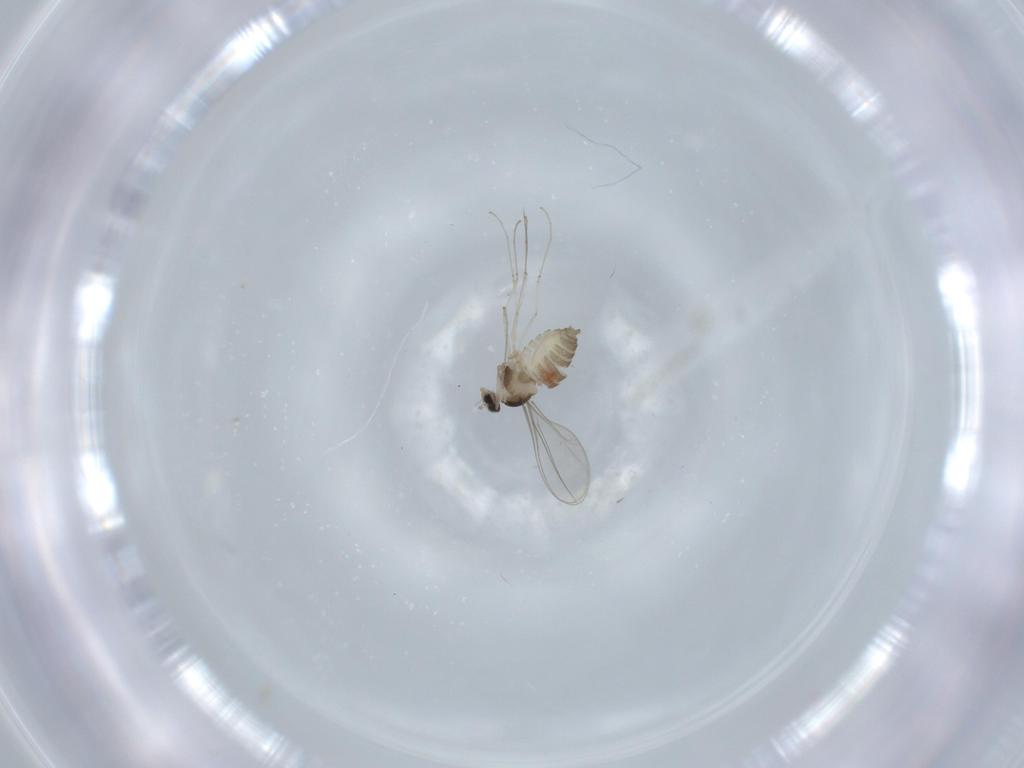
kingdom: Animalia
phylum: Arthropoda
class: Insecta
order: Diptera
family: Cecidomyiidae
